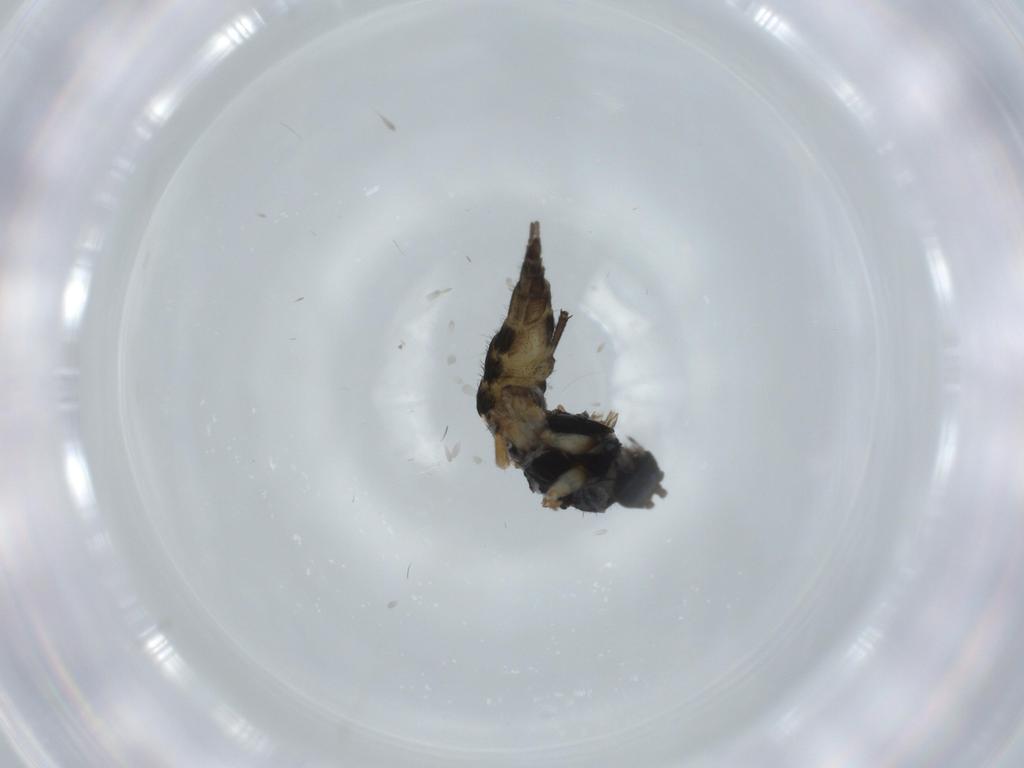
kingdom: Animalia
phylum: Arthropoda
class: Insecta
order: Diptera
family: Sciaridae
